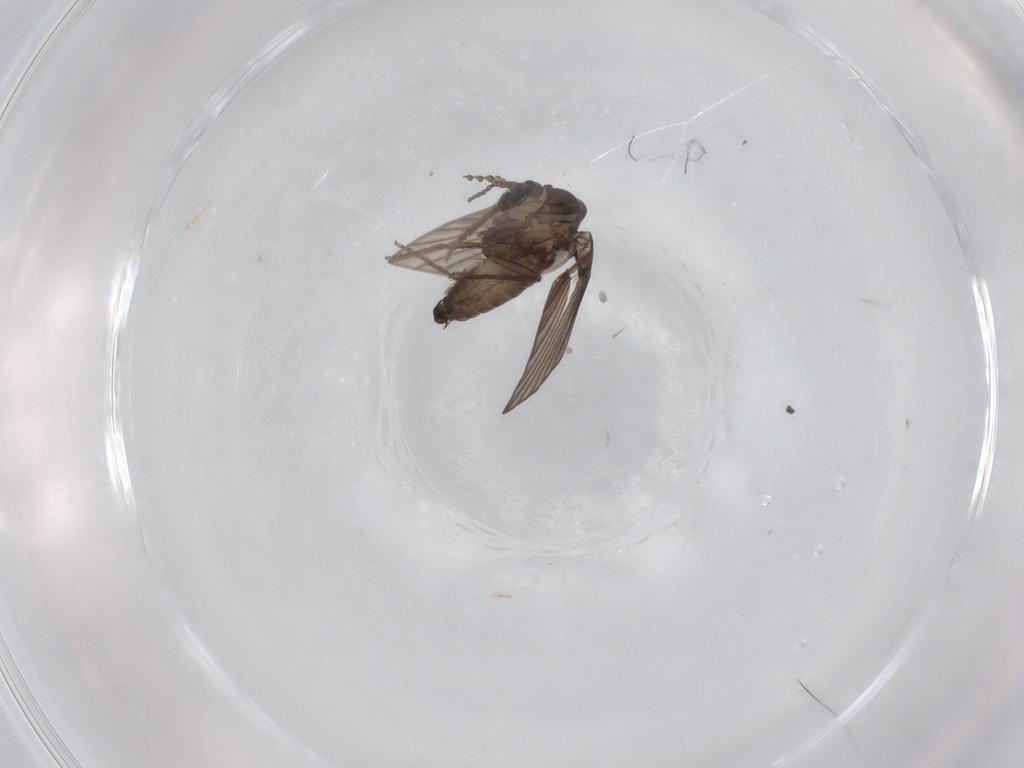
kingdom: Animalia
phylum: Arthropoda
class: Insecta
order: Diptera
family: Psychodidae
